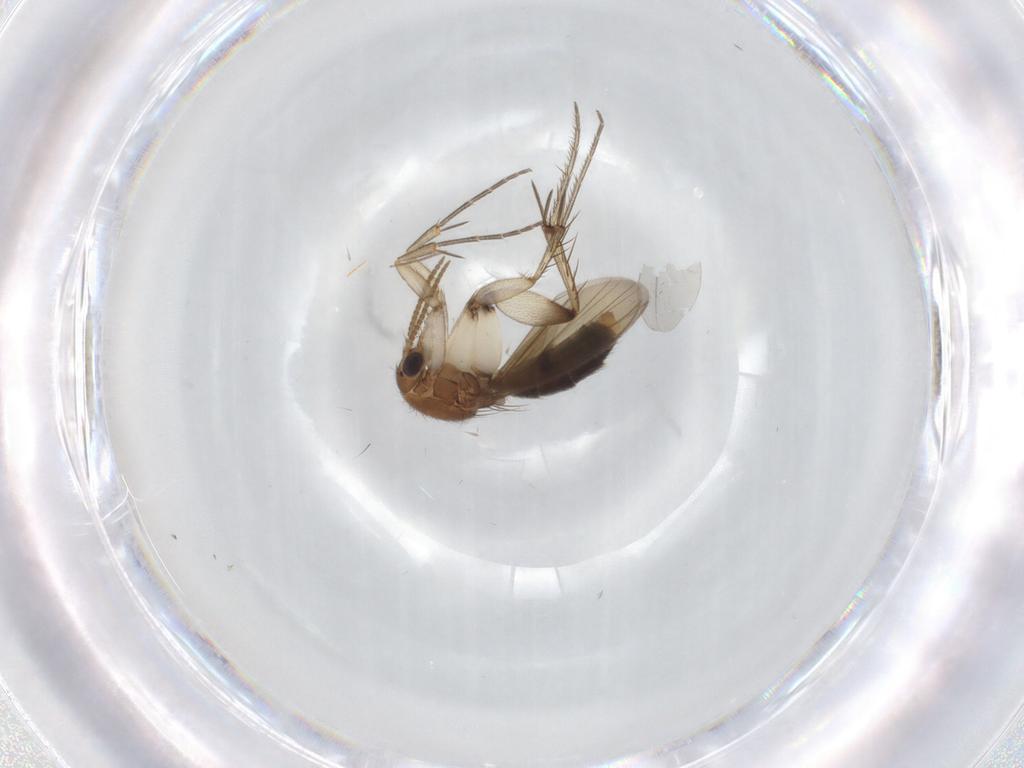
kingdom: Animalia
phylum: Arthropoda
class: Insecta
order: Diptera
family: Mycetophilidae
